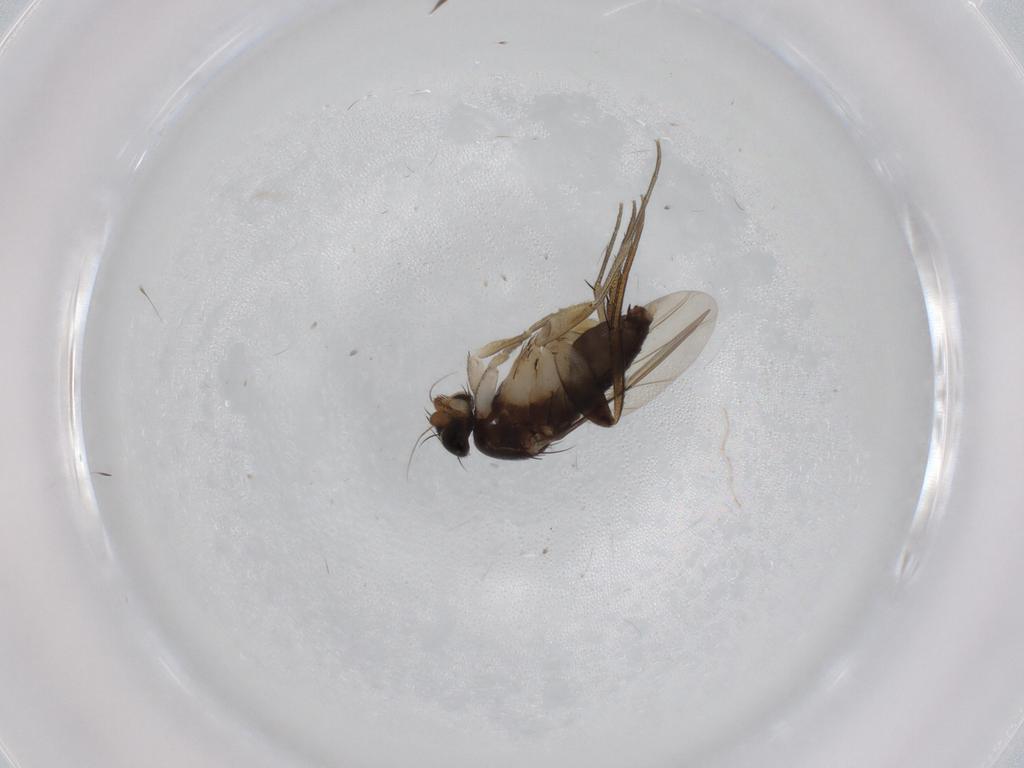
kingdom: Animalia
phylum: Arthropoda
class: Insecta
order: Diptera
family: Phoridae
